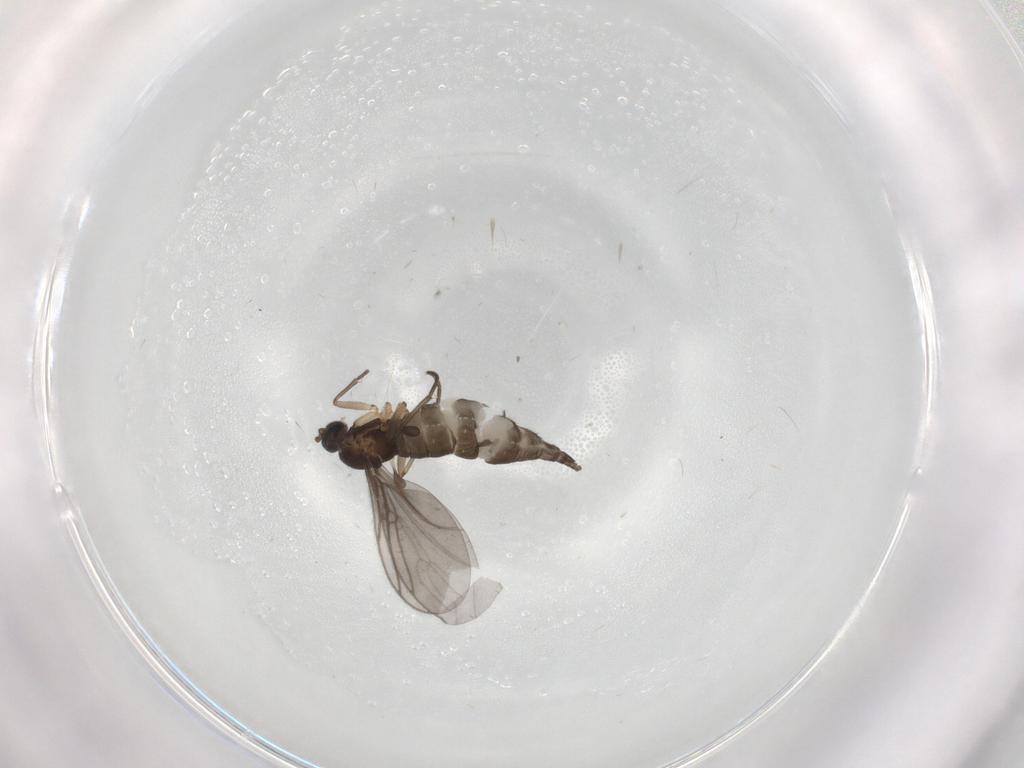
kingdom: Animalia
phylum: Arthropoda
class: Insecta
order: Diptera
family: Sciaridae
